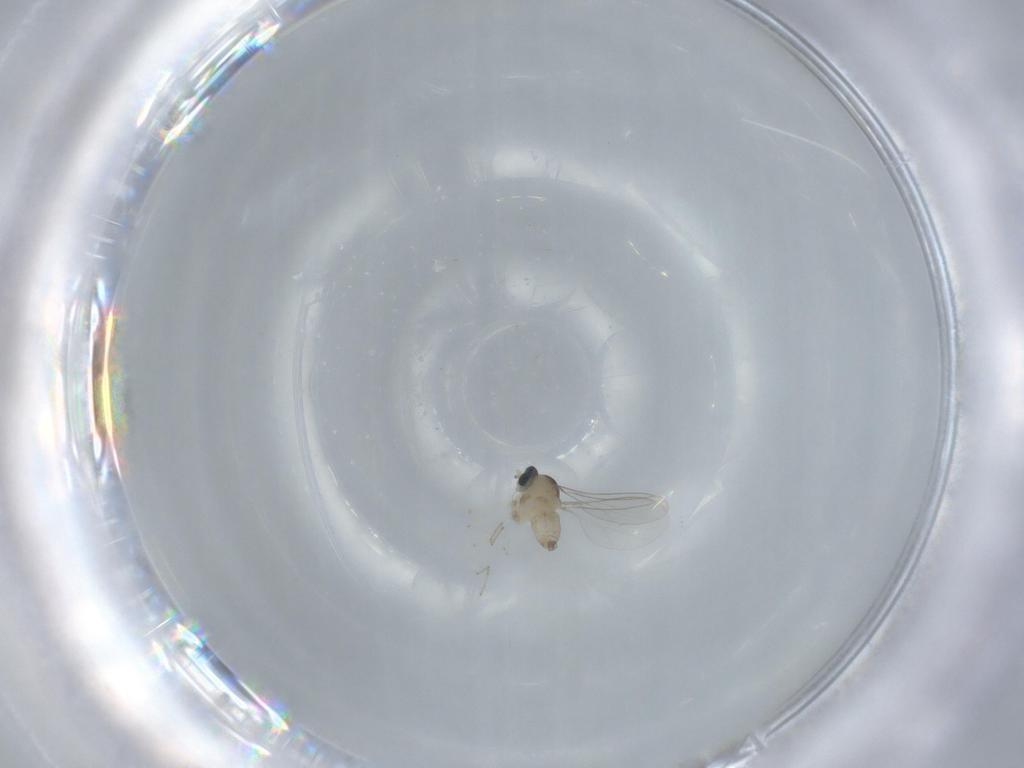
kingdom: Animalia
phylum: Arthropoda
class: Insecta
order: Diptera
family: Cecidomyiidae
